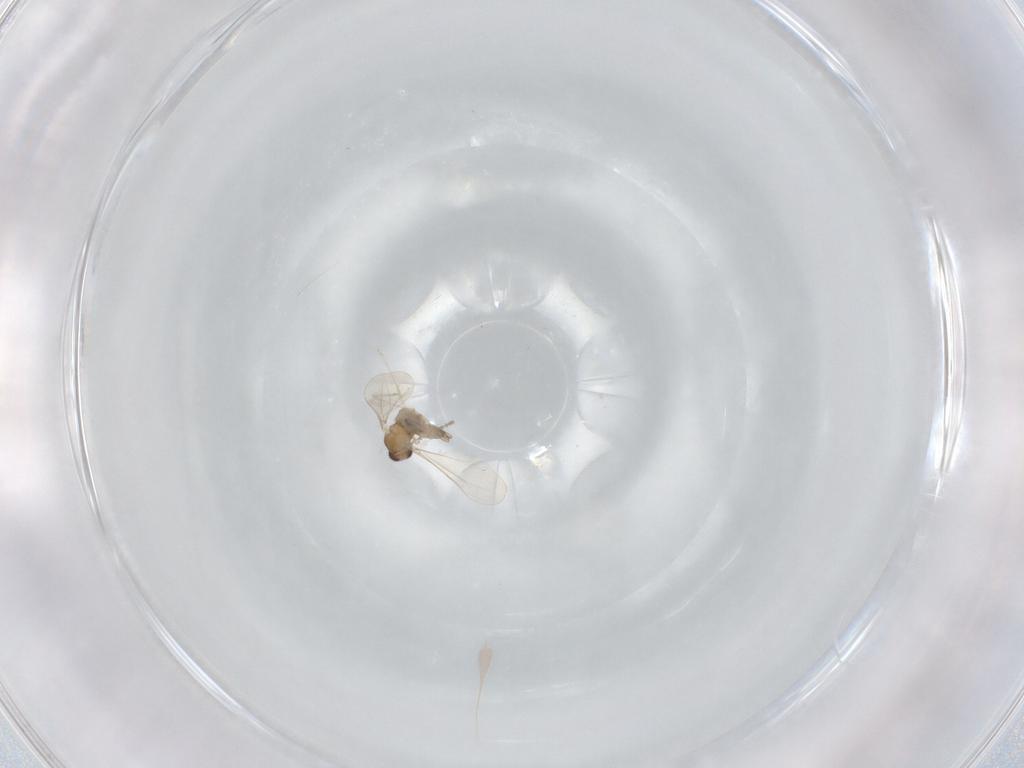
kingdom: Animalia
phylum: Arthropoda
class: Insecta
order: Diptera
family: Cecidomyiidae
